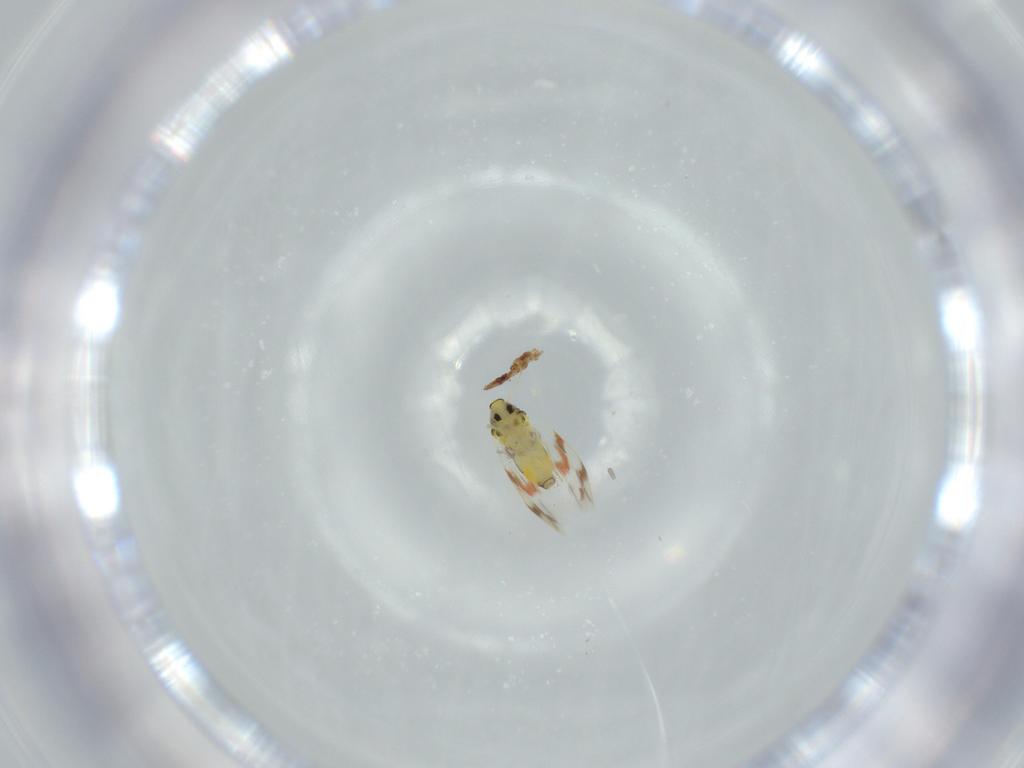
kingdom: Animalia
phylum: Arthropoda
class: Insecta
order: Hemiptera
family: Aleyrodidae
